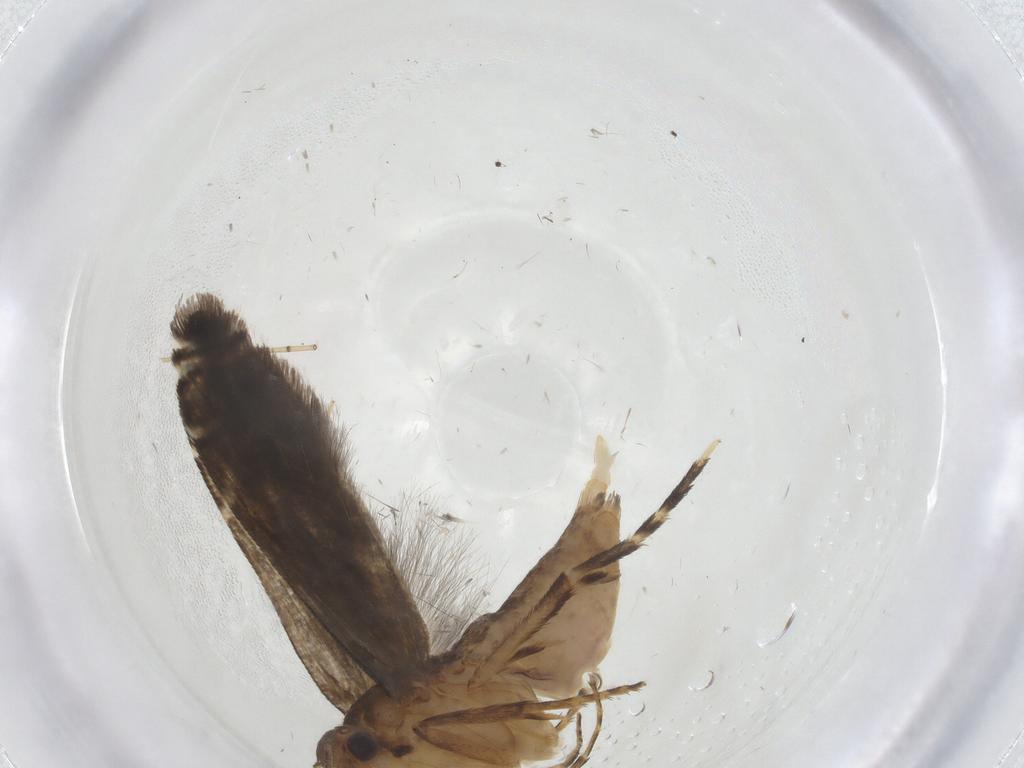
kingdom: Animalia
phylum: Arthropoda
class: Insecta
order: Lepidoptera
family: Glyphipterigidae
